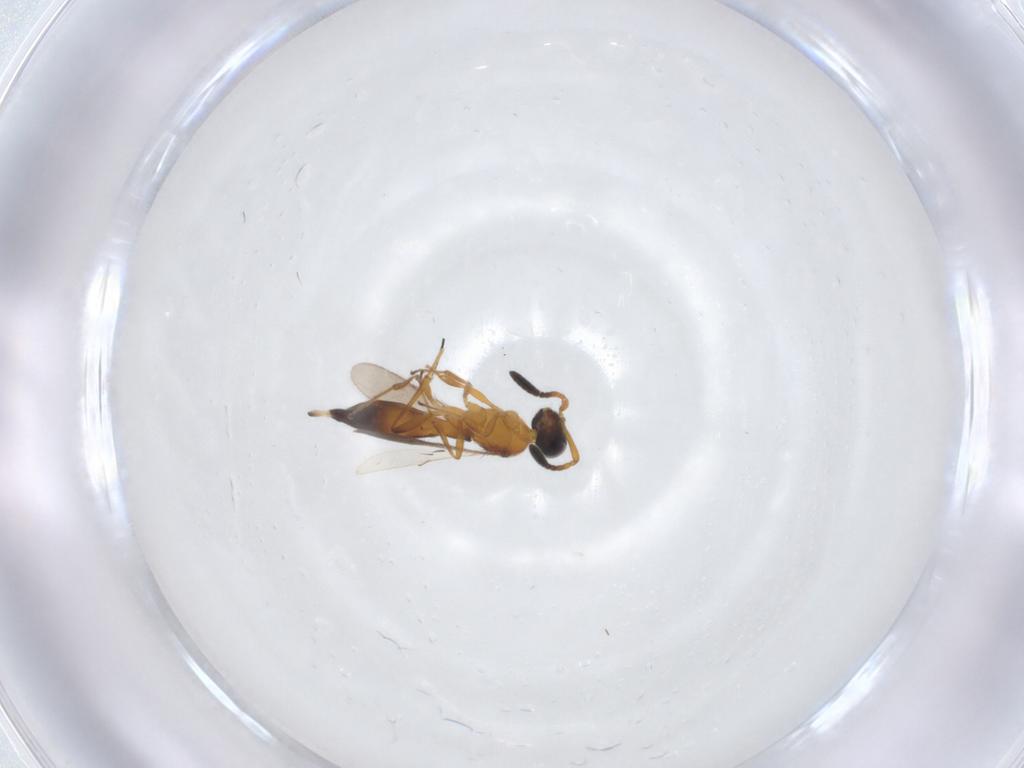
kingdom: Animalia
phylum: Arthropoda
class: Insecta
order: Hymenoptera
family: Scelionidae
